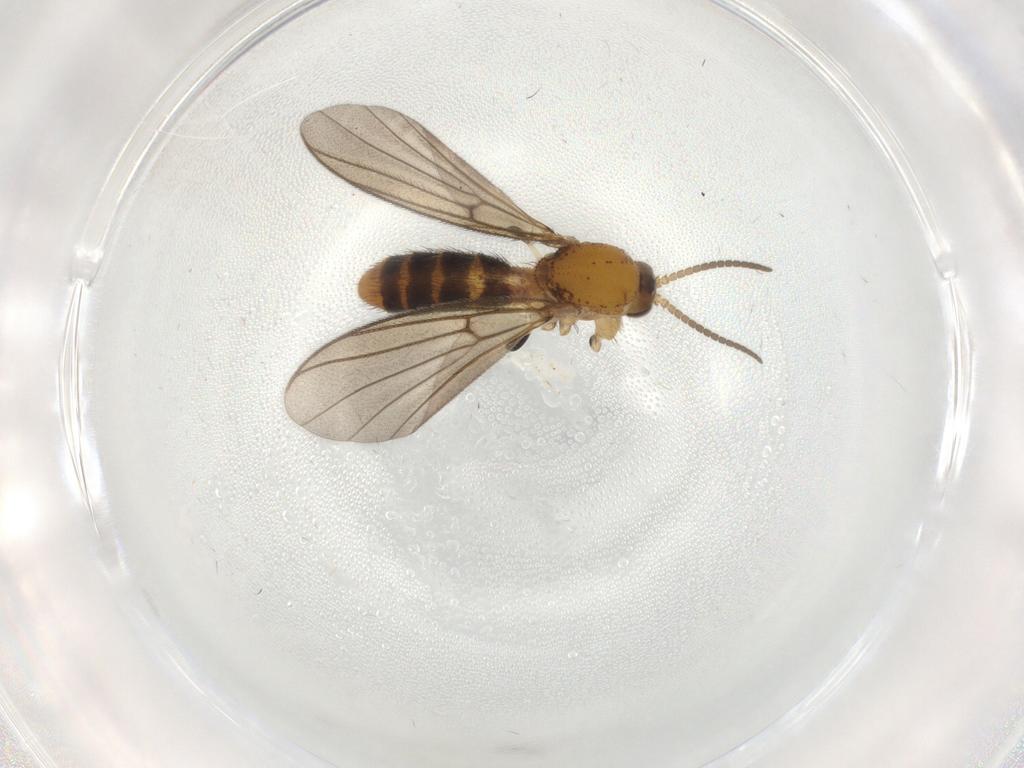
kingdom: Animalia
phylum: Arthropoda
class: Insecta
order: Diptera
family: Mycetophilidae
